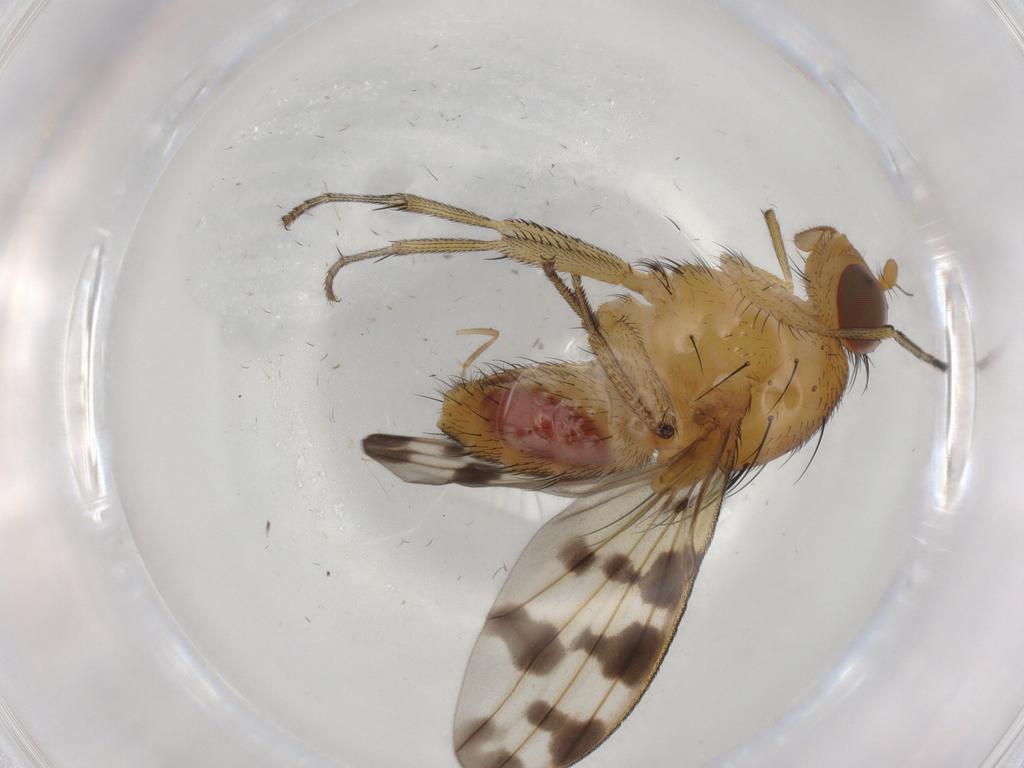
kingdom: Animalia
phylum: Arthropoda
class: Insecta
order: Diptera
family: Ceratopogonidae
